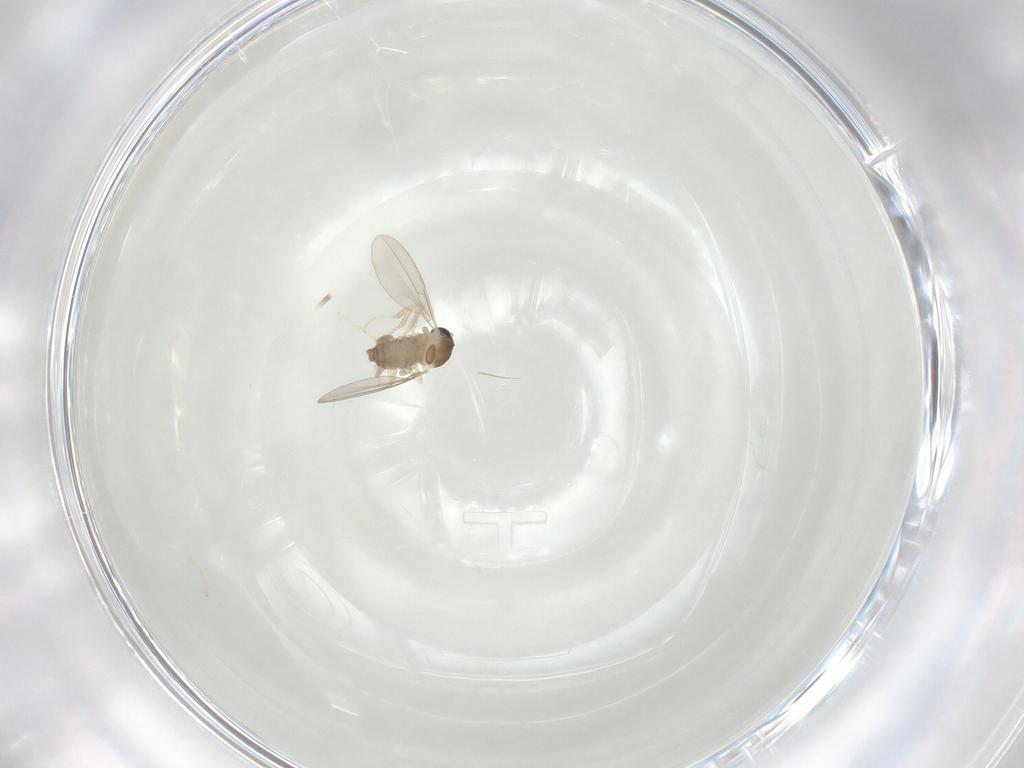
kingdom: Animalia
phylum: Arthropoda
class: Insecta
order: Diptera
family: Cecidomyiidae
